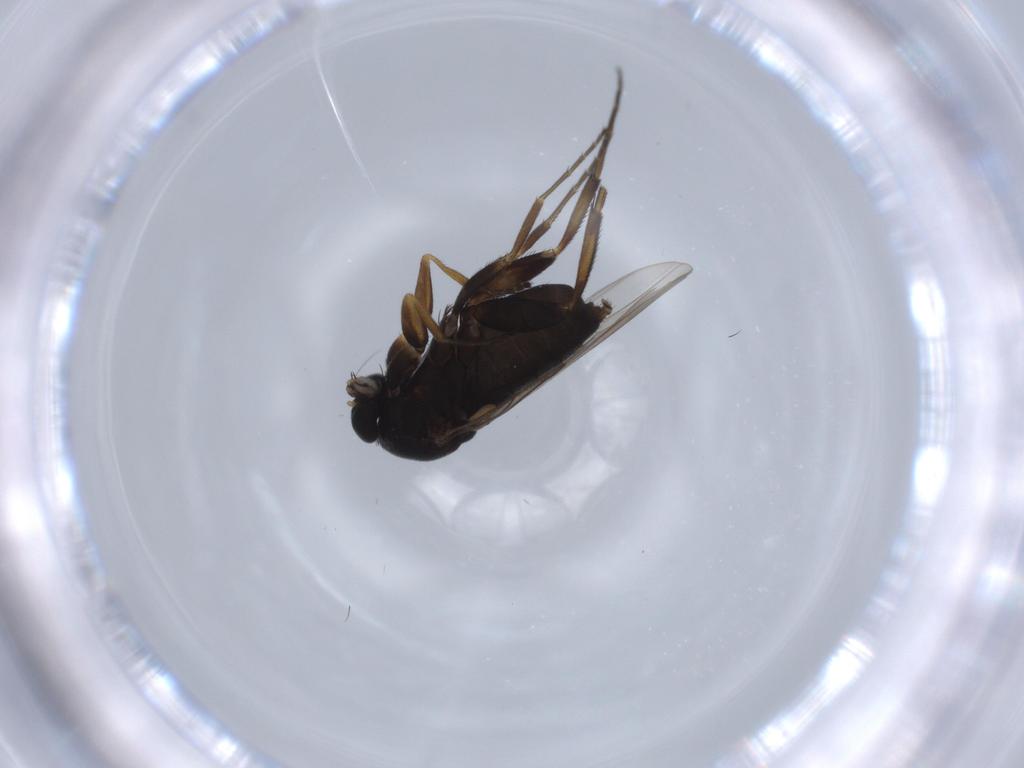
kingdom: Animalia
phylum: Arthropoda
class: Insecta
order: Diptera
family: Phoridae
